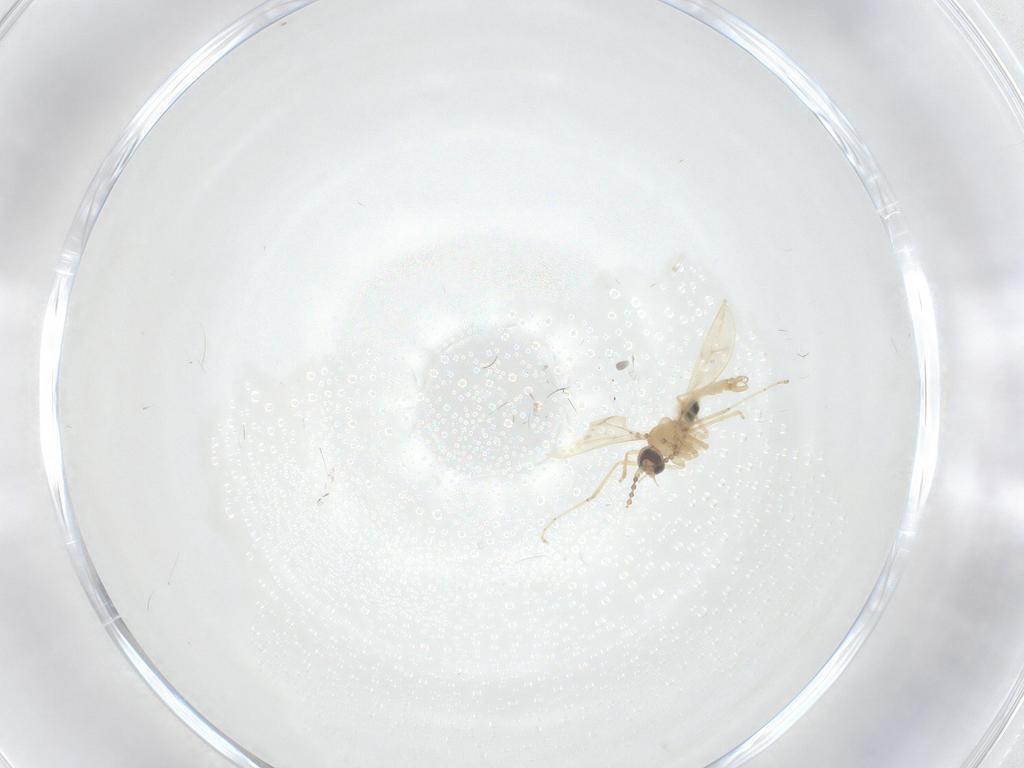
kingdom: Animalia
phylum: Arthropoda
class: Insecta
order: Diptera
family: Cecidomyiidae
